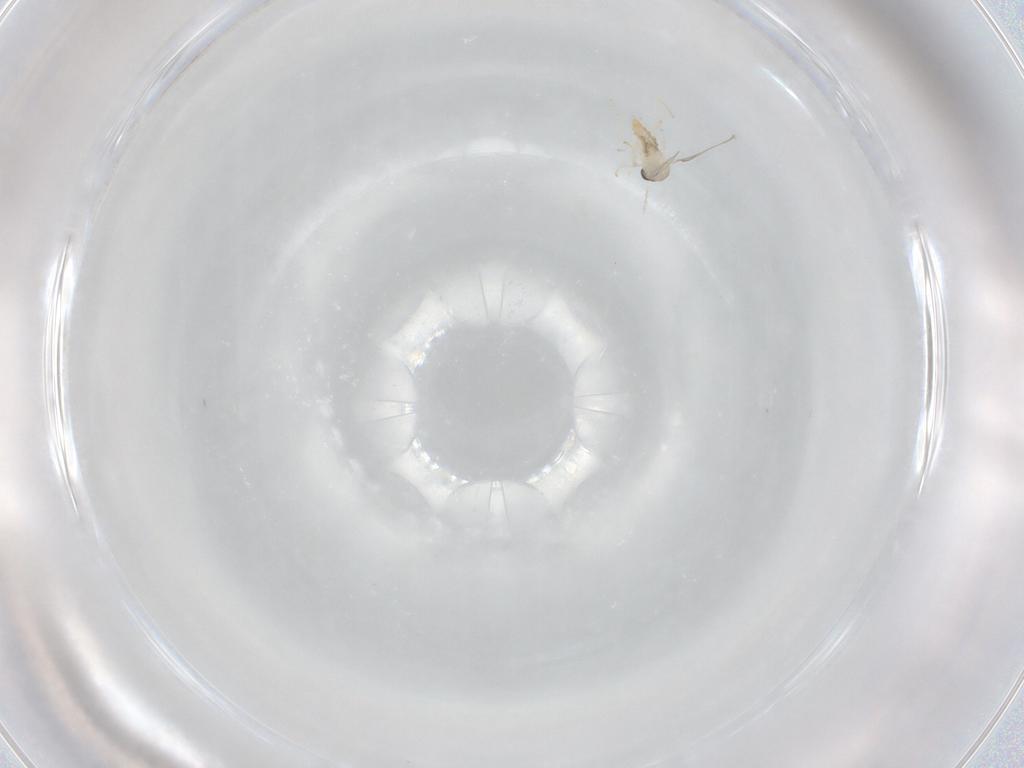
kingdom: Animalia
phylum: Arthropoda
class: Insecta
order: Diptera
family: Cecidomyiidae
